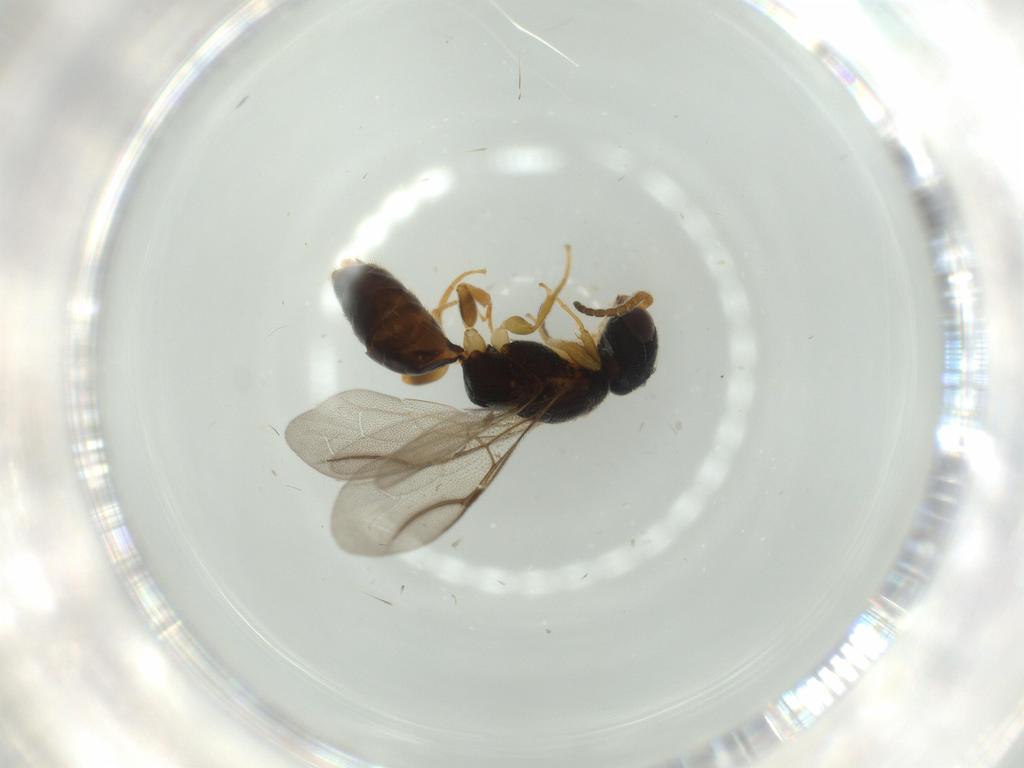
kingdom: Animalia
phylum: Arthropoda
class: Insecta
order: Hymenoptera
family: Bethylidae
